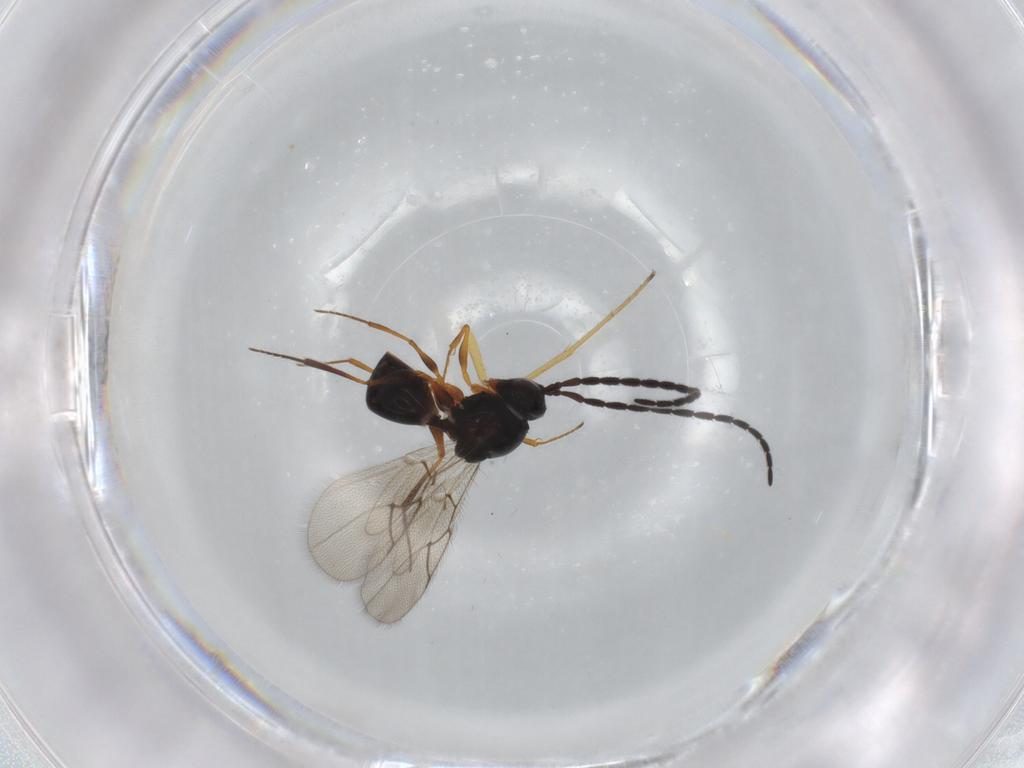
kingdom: Animalia
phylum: Arthropoda
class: Insecta
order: Hymenoptera
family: Figitidae
